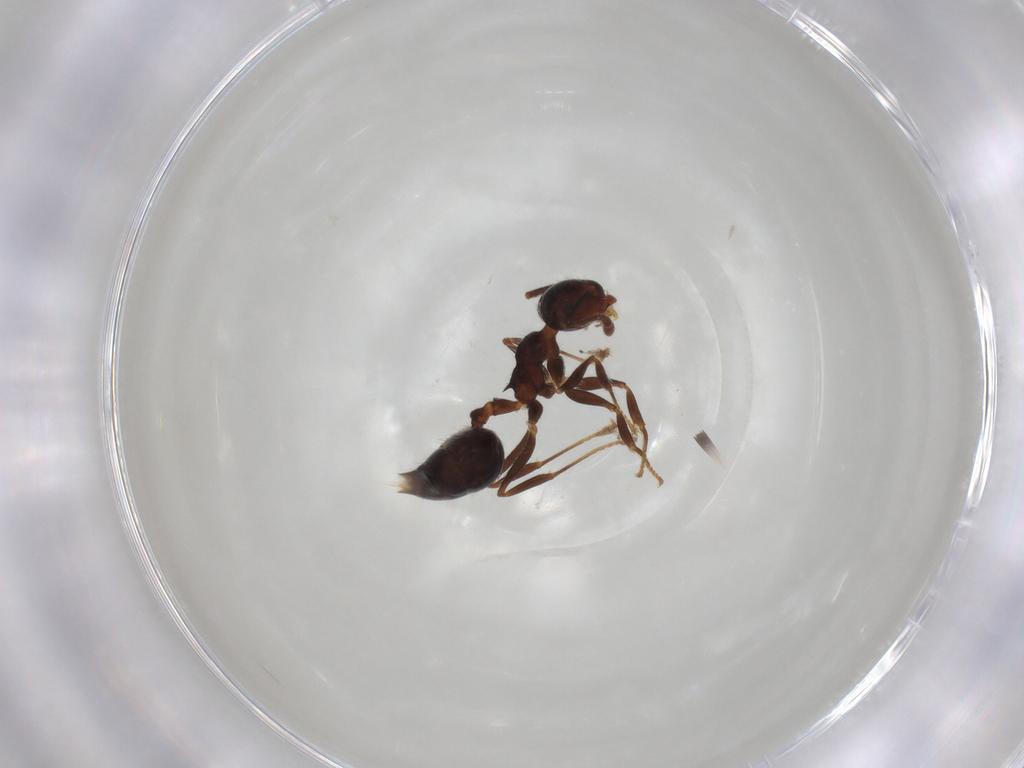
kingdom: Animalia
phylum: Arthropoda
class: Insecta
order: Hymenoptera
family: Formicidae
